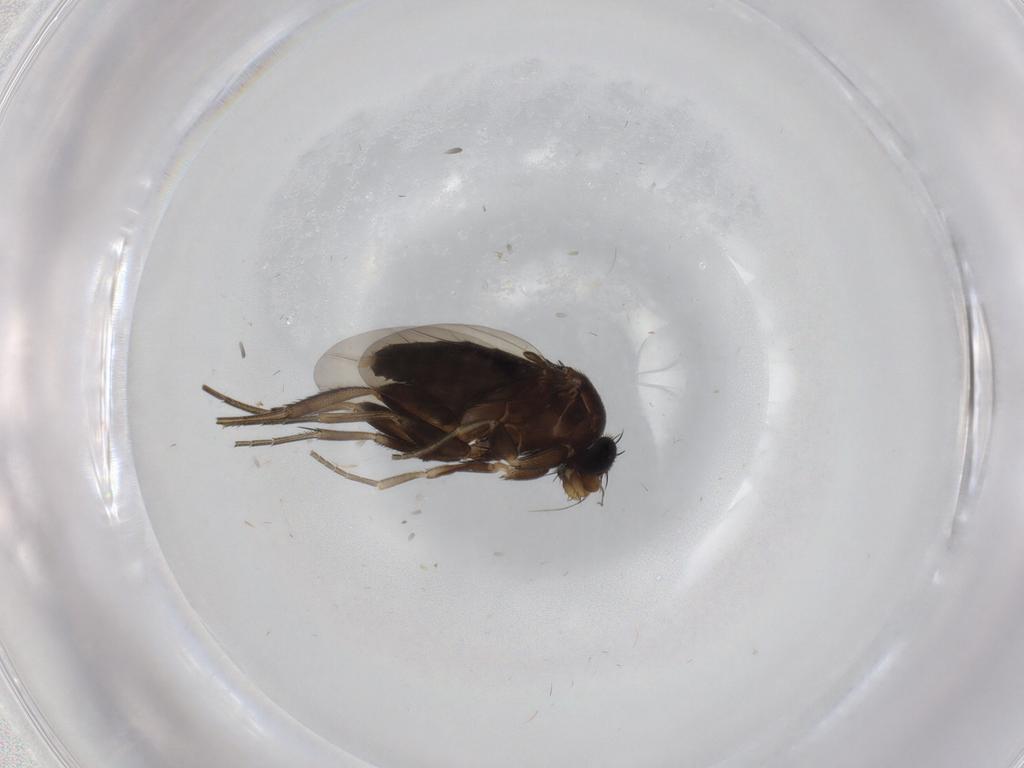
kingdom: Animalia
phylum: Arthropoda
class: Insecta
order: Diptera
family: Phoridae
